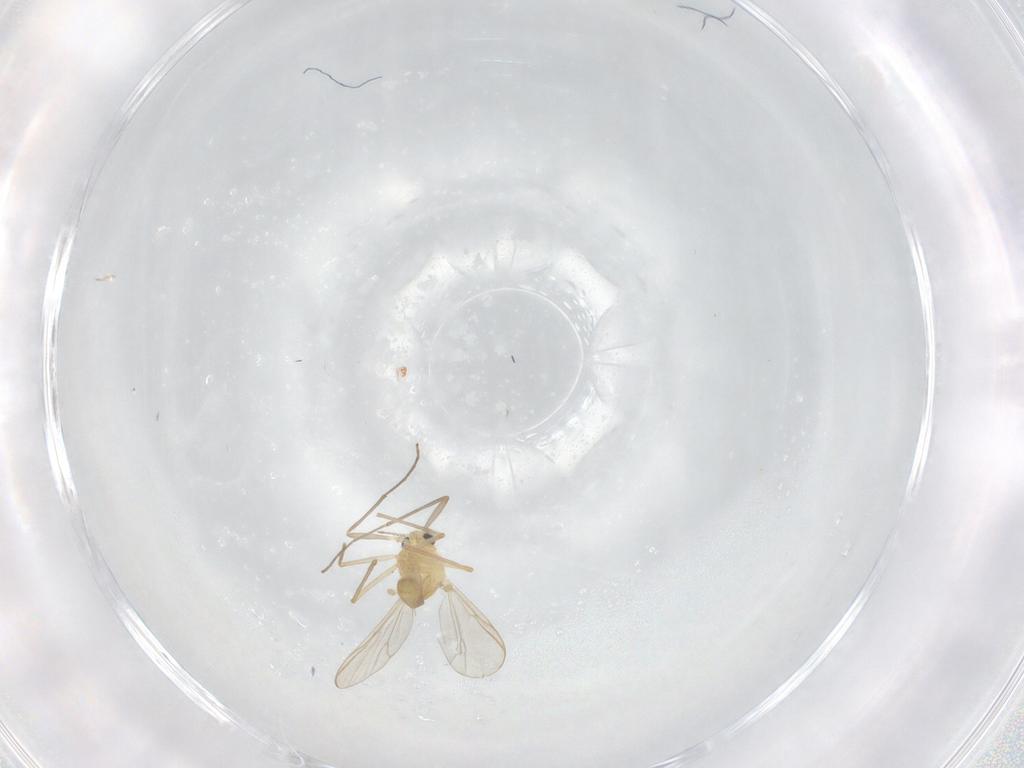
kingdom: Animalia
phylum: Arthropoda
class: Insecta
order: Diptera
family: Chironomidae
